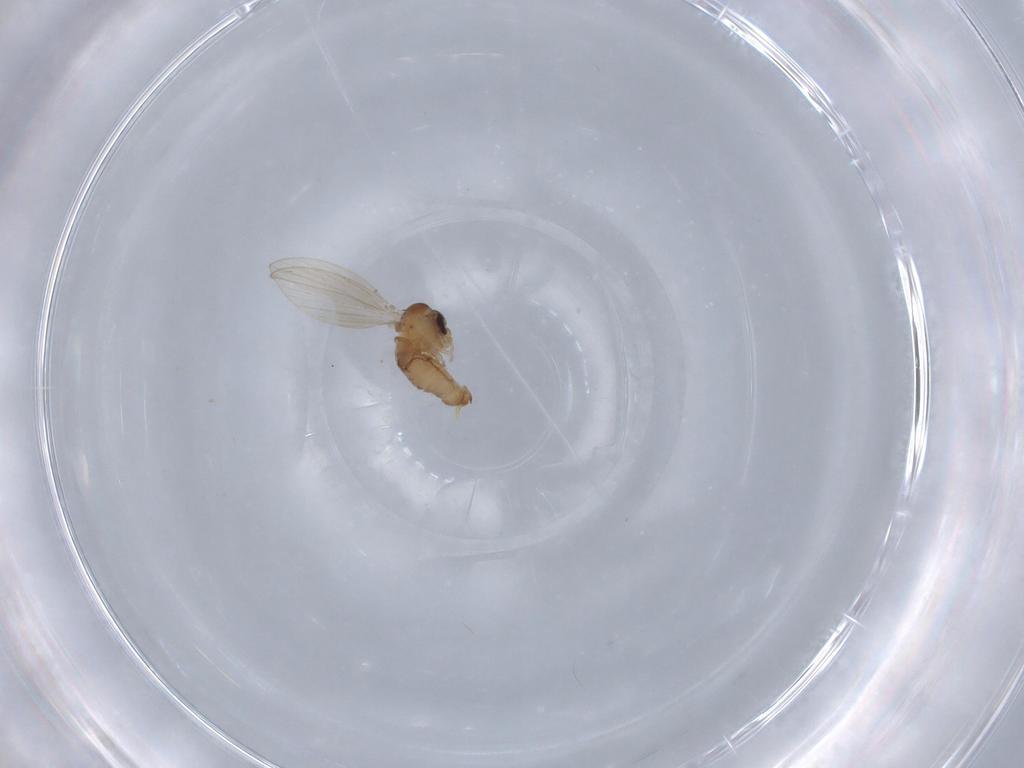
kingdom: Animalia
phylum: Arthropoda
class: Insecta
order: Diptera
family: Psychodidae
